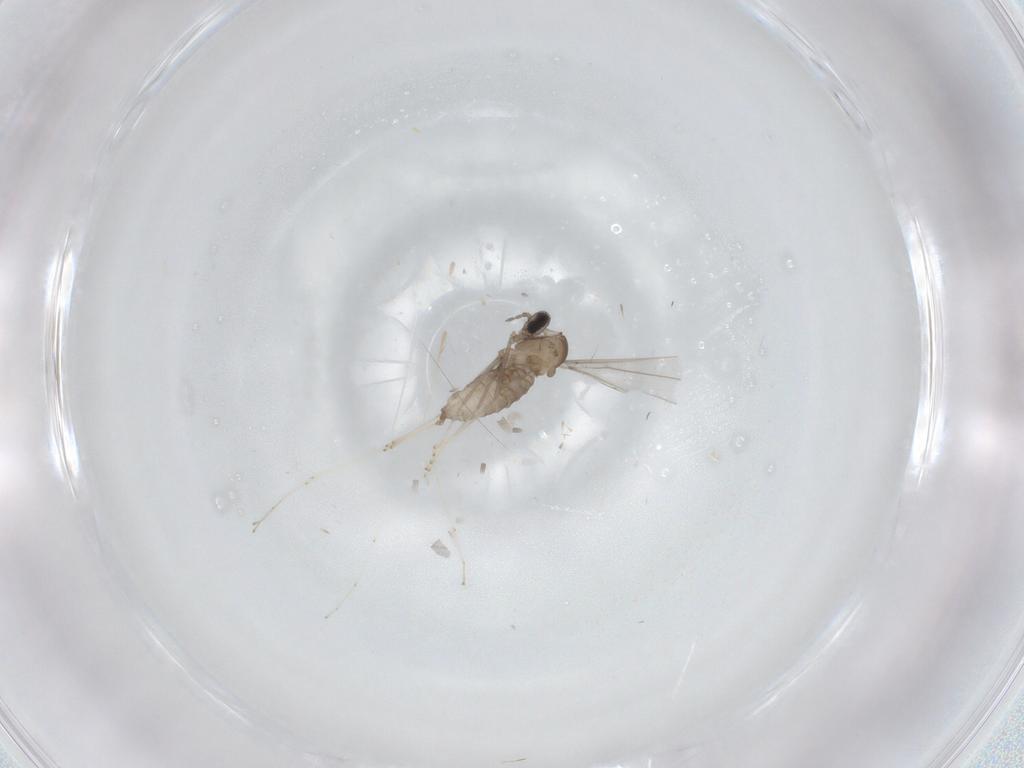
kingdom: Animalia
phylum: Arthropoda
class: Insecta
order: Diptera
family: Cecidomyiidae
